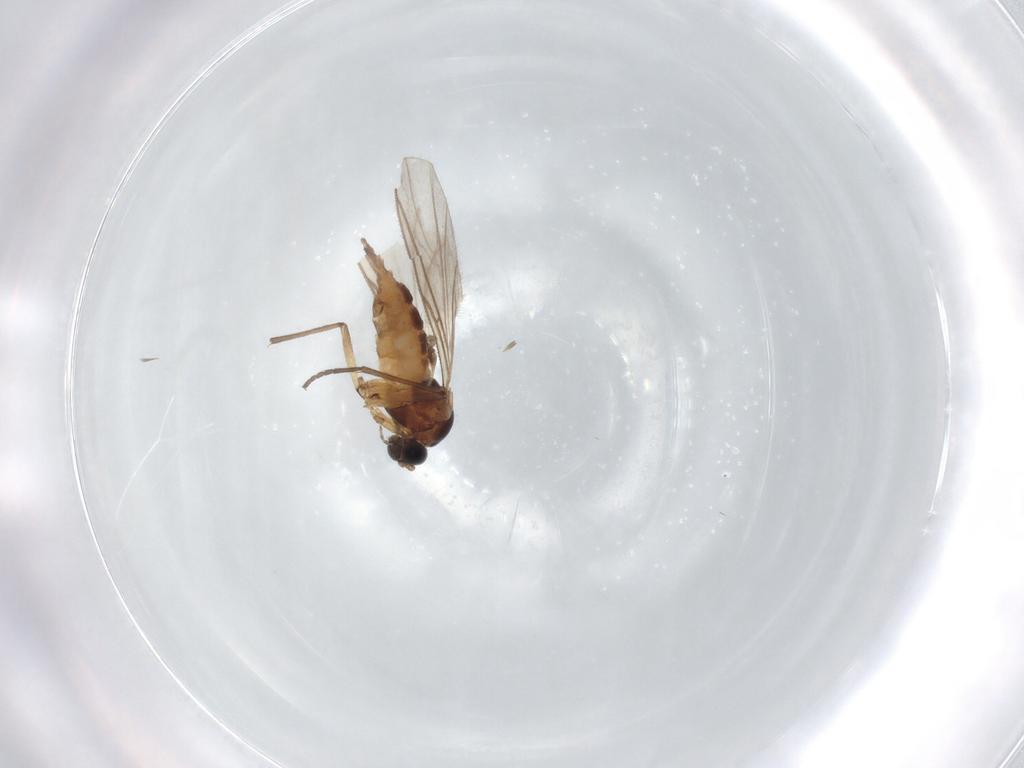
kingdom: Animalia
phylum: Arthropoda
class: Insecta
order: Diptera
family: Sciaridae
